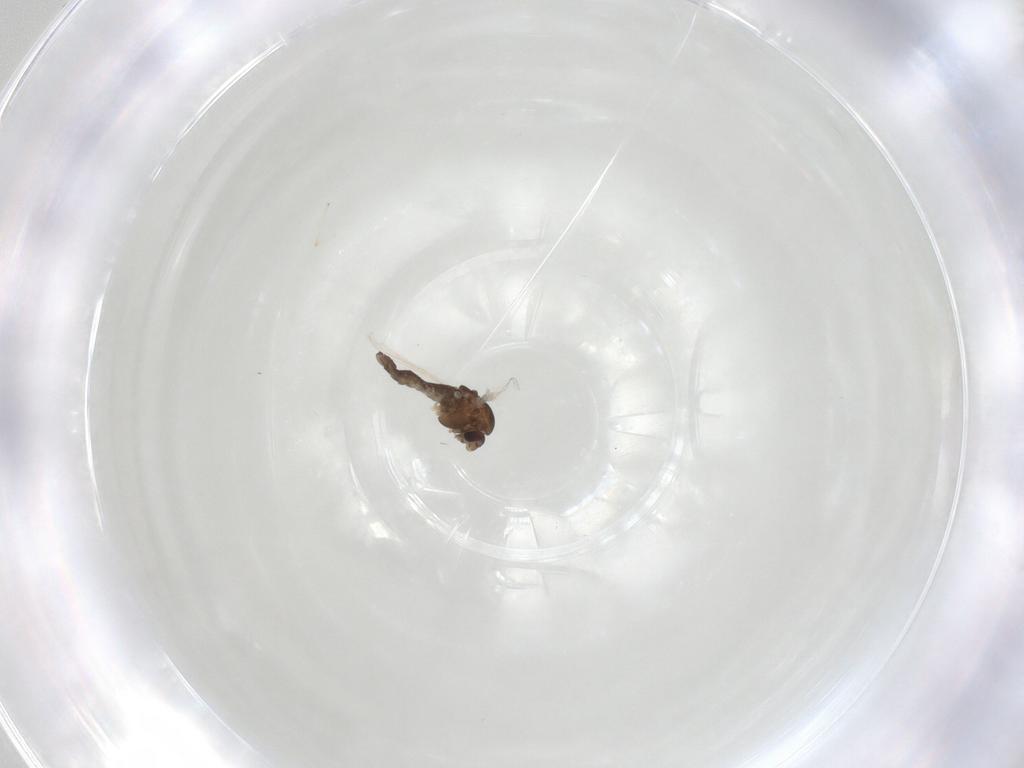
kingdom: Animalia
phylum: Arthropoda
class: Insecta
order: Diptera
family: Chironomidae
